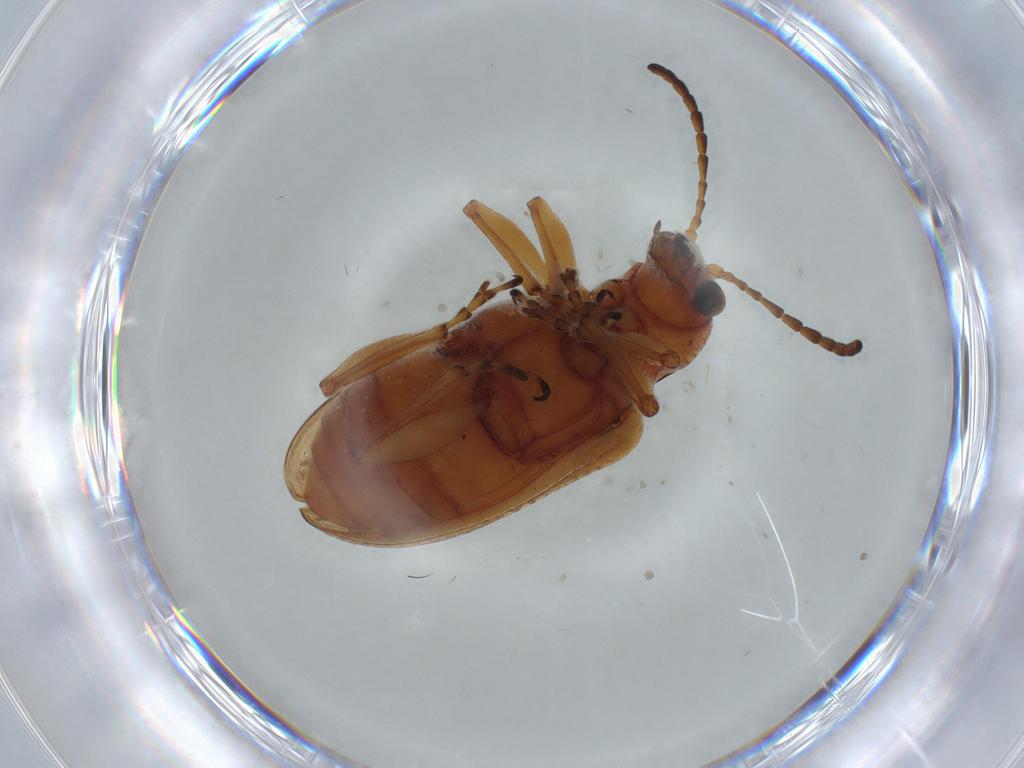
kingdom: Animalia
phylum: Arthropoda
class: Insecta
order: Coleoptera
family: Chrysomelidae
